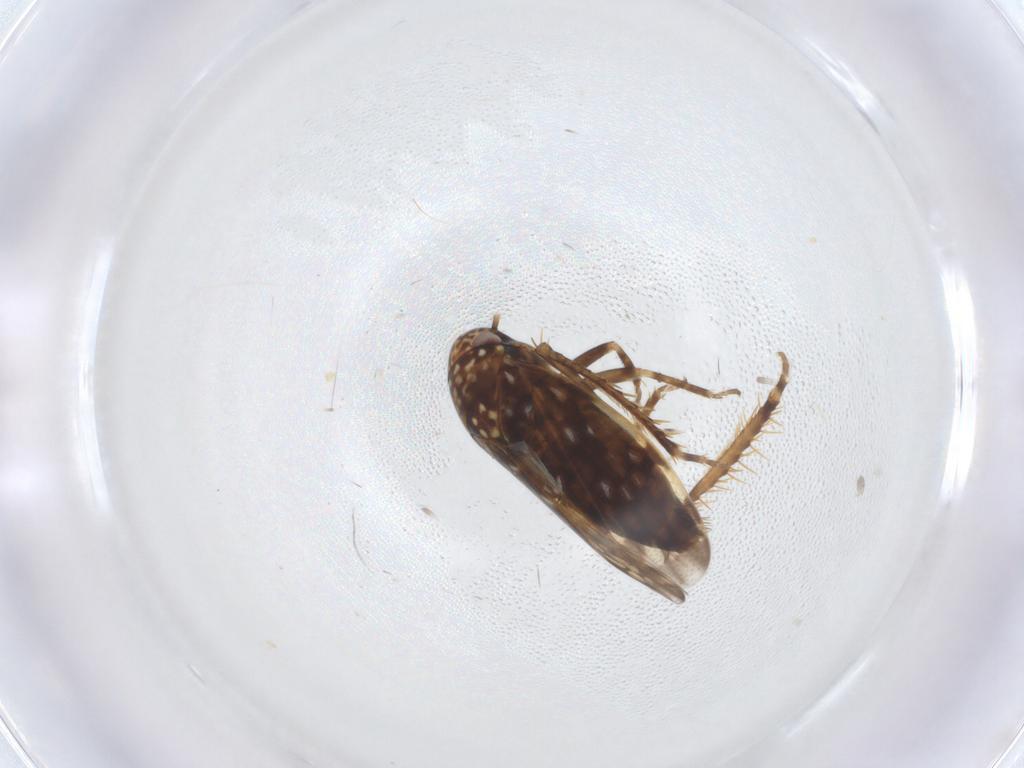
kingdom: Animalia
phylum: Arthropoda
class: Insecta
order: Hemiptera
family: Cicadellidae
